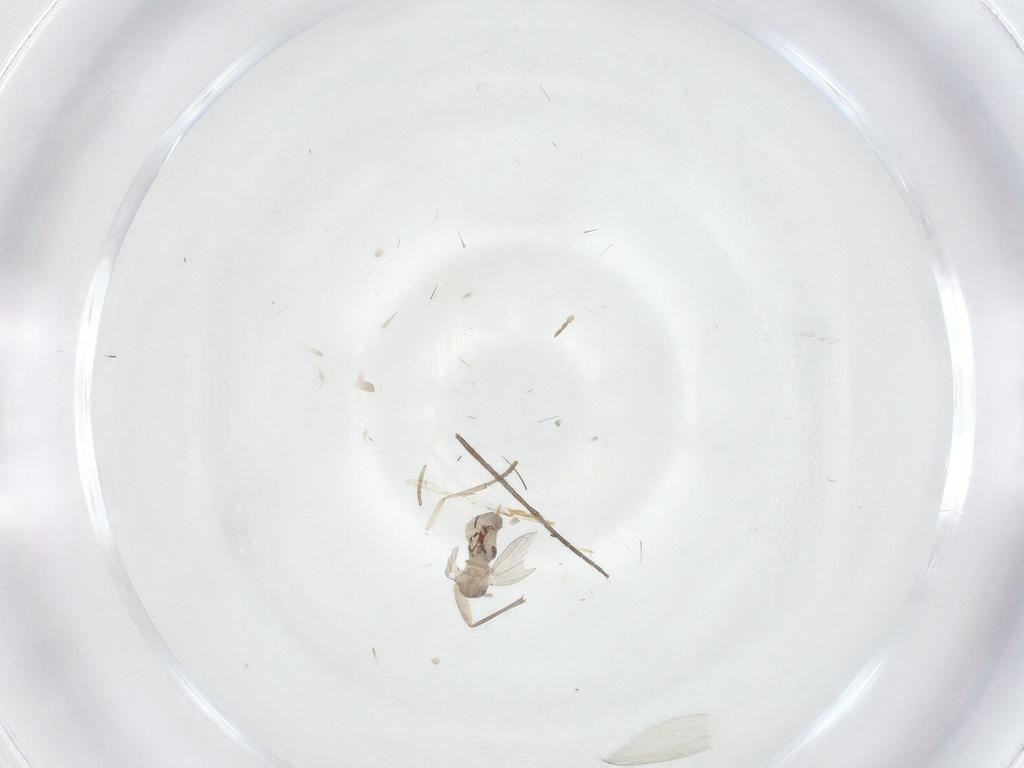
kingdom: Animalia
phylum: Arthropoda
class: Insecta
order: Diptera
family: Psychodidae
